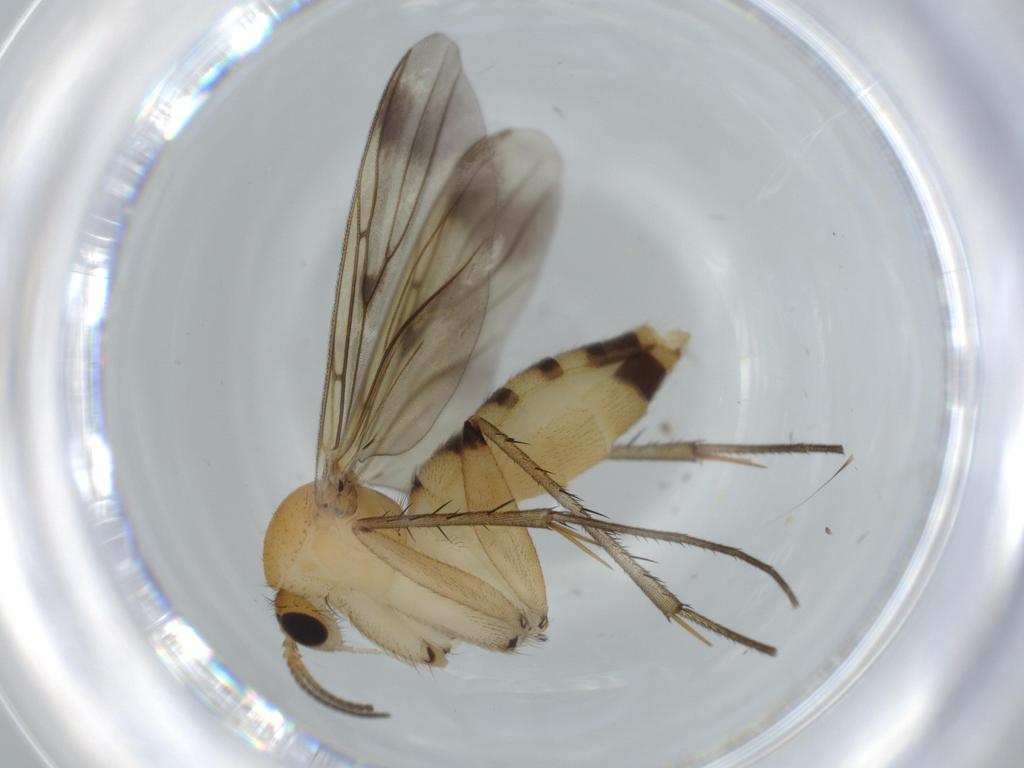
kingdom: Animalia
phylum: Arthropoda
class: Insecta
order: Diptera
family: Mycetophilidae
